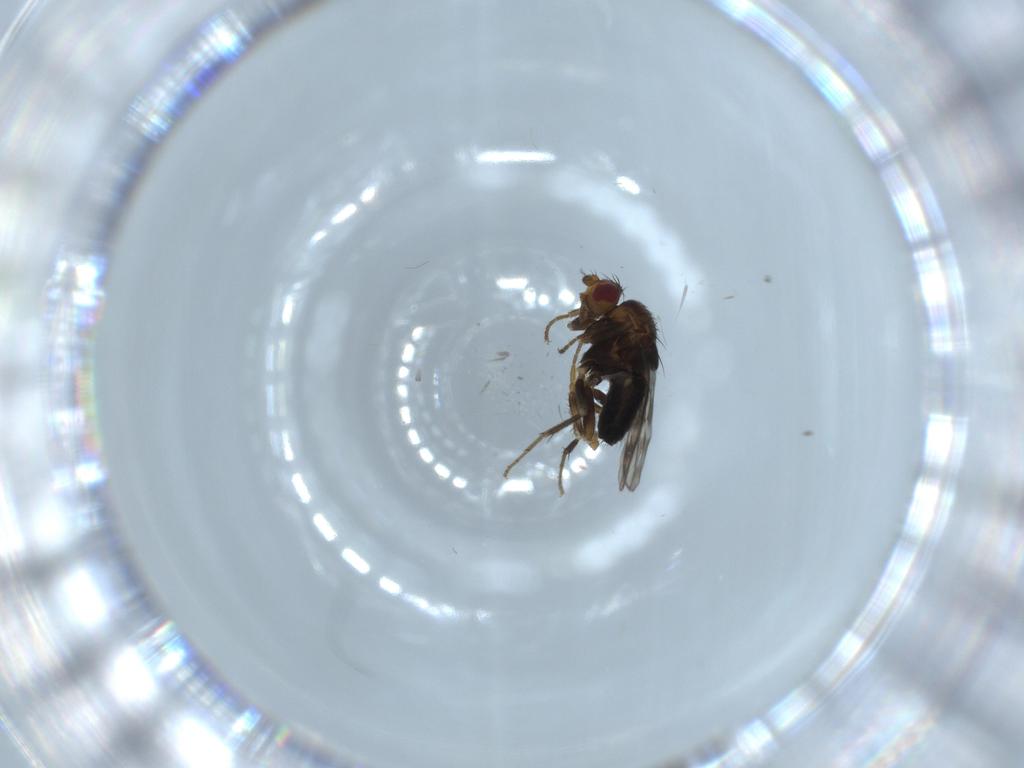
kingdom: Animalia
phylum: Arthropoda
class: Insecta
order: Diptera
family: Sphaeroceridae
